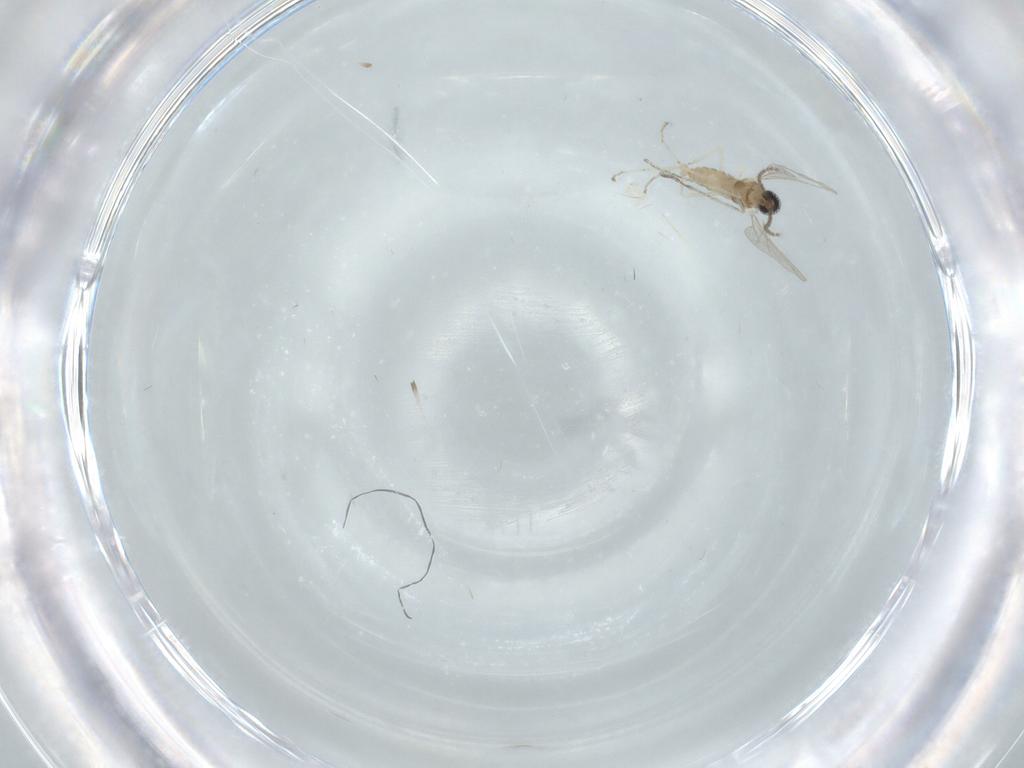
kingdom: Animalia
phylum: Arthropoda
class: Insecta
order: Diptera
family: Cecidomyiidae
